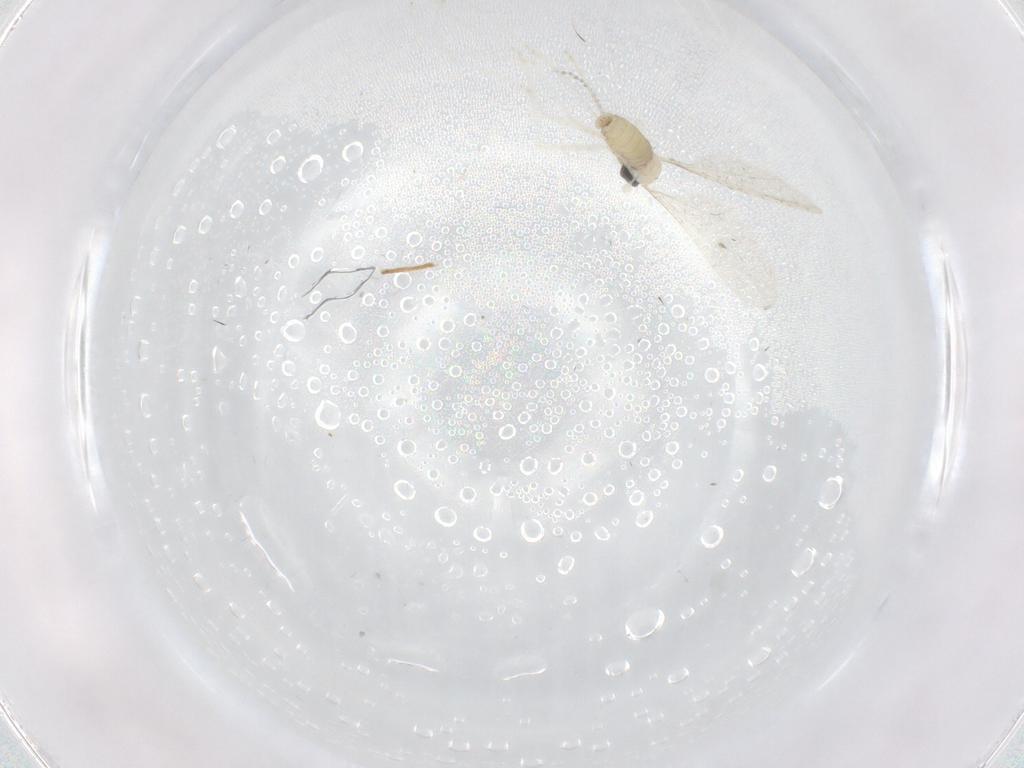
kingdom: Animalia
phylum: Arthropoda
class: Insecta
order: Diptera
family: Cecidomyiidae
